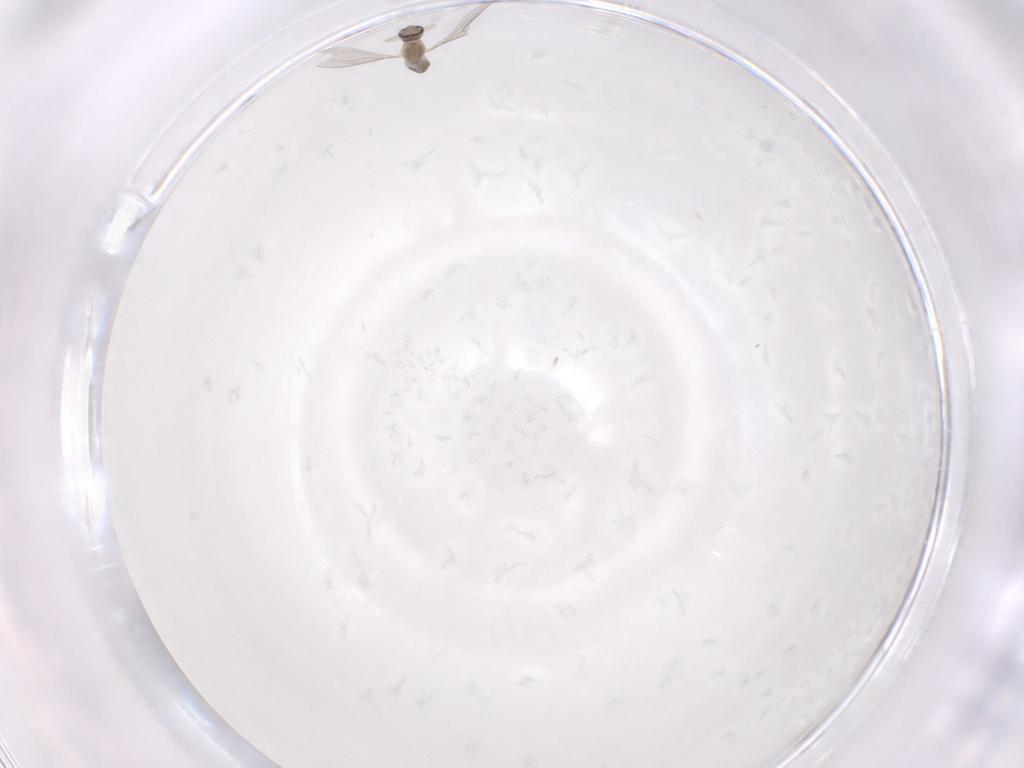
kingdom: Animalia
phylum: Arthropoda
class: Insecta
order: Diptera
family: Cecidomyiidae
